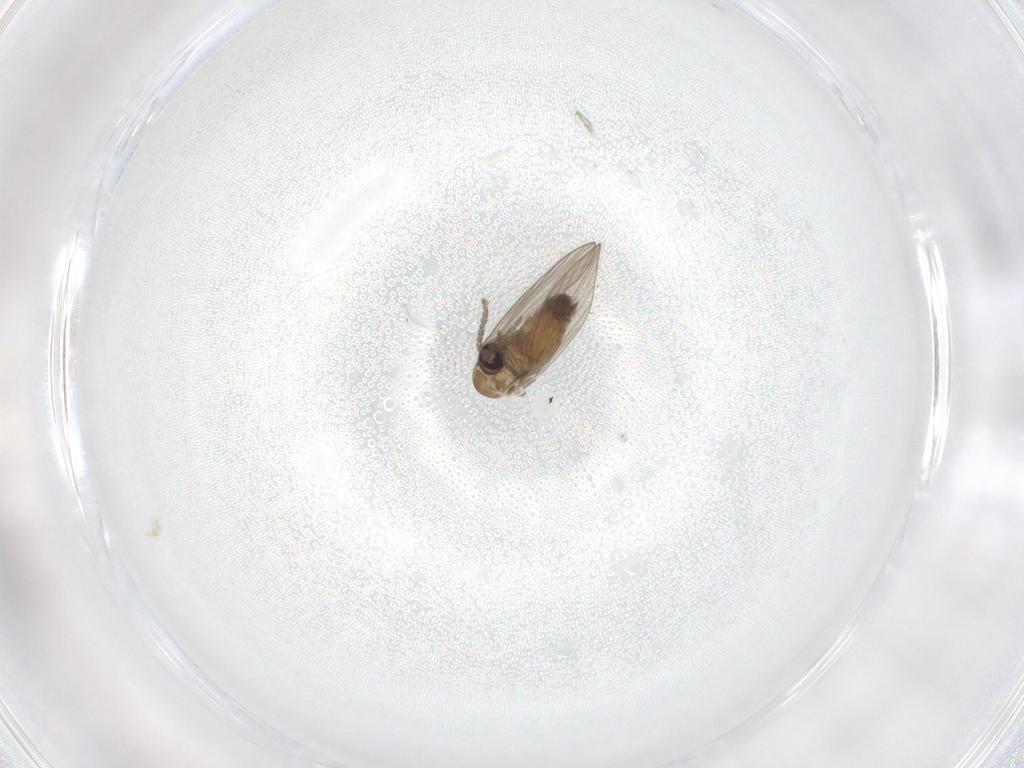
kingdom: Animalia
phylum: Arthropoda
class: Insecta
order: Diptera
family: Psychodidae
